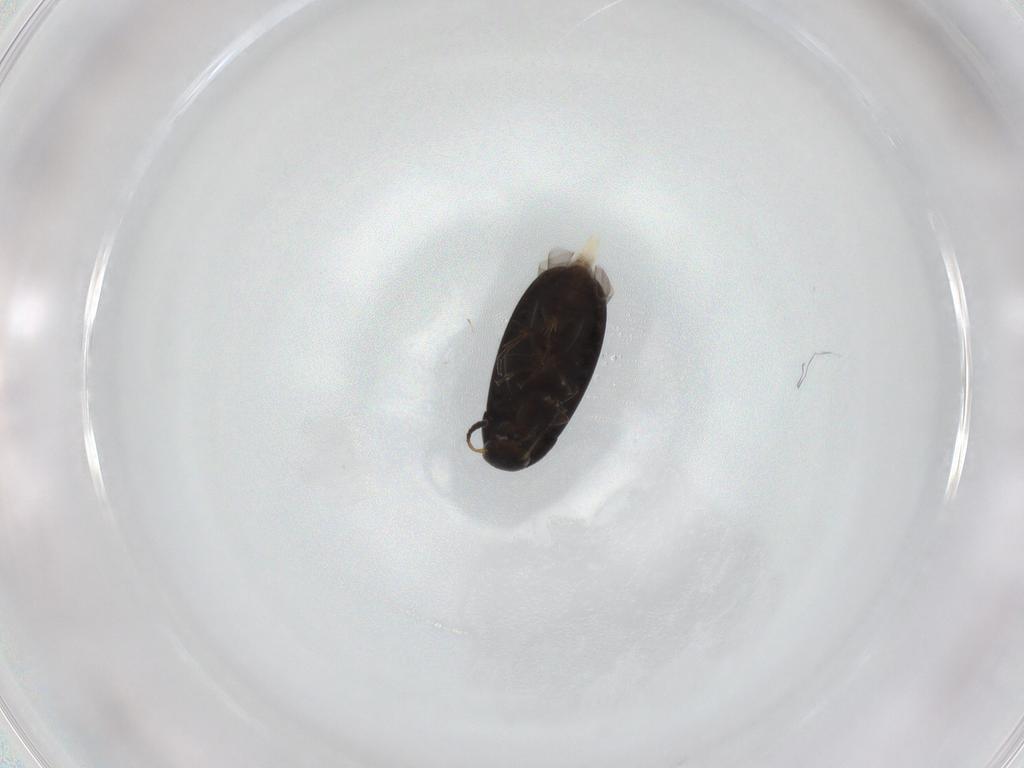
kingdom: Animalia
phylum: Arthropoda
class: Insecta
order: Coleoptera
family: Scraptiidae
